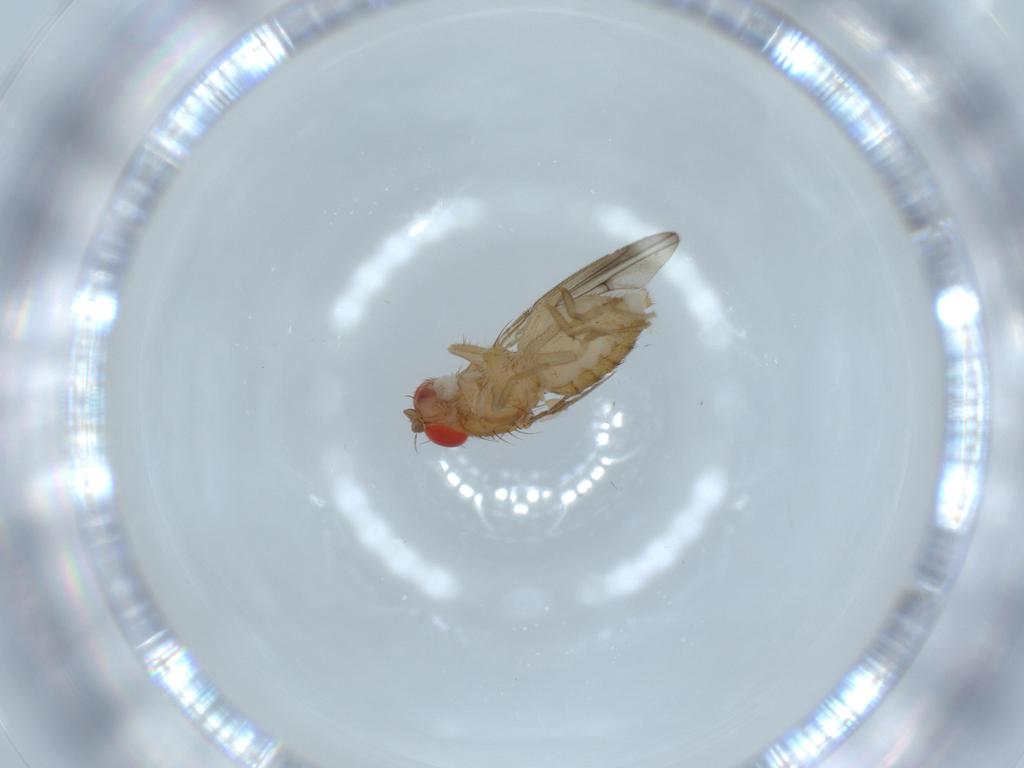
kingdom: Animalia
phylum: Arthropoda
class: Insecta
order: Diptera
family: Drosophilidae
